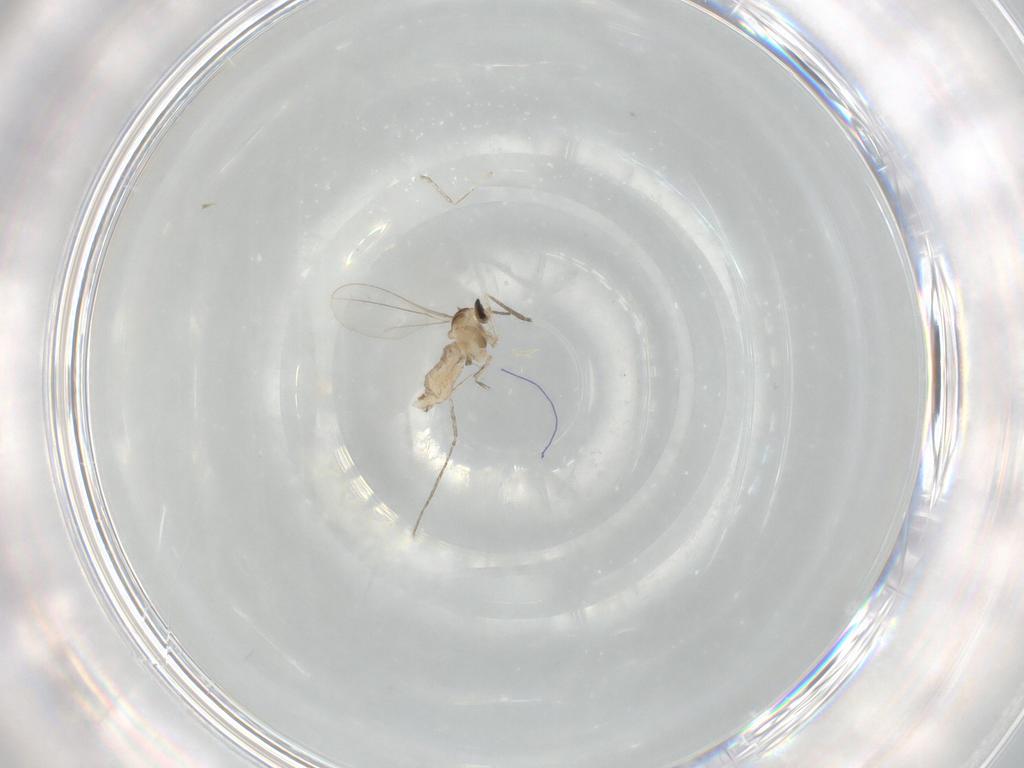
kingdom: Animalia
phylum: Arthropoda
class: Insecta
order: Diptera
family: Cecidomyiidae
